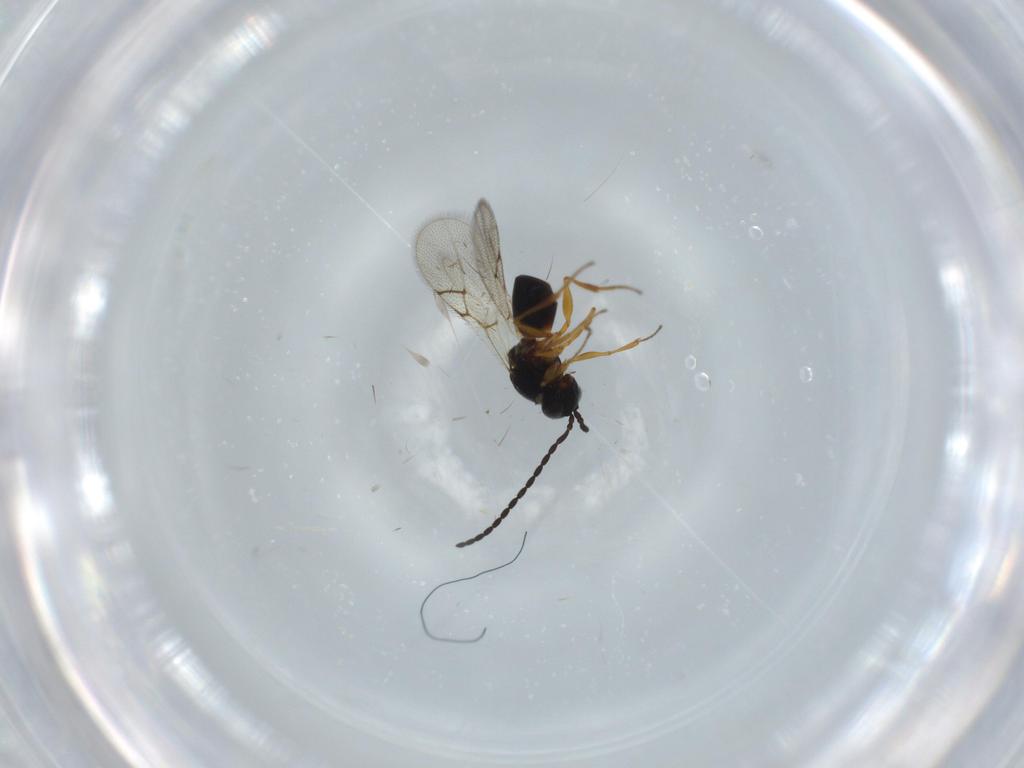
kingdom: Animalia
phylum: Arthropoda
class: Insecta
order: Hymenoptera
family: Figitidae
